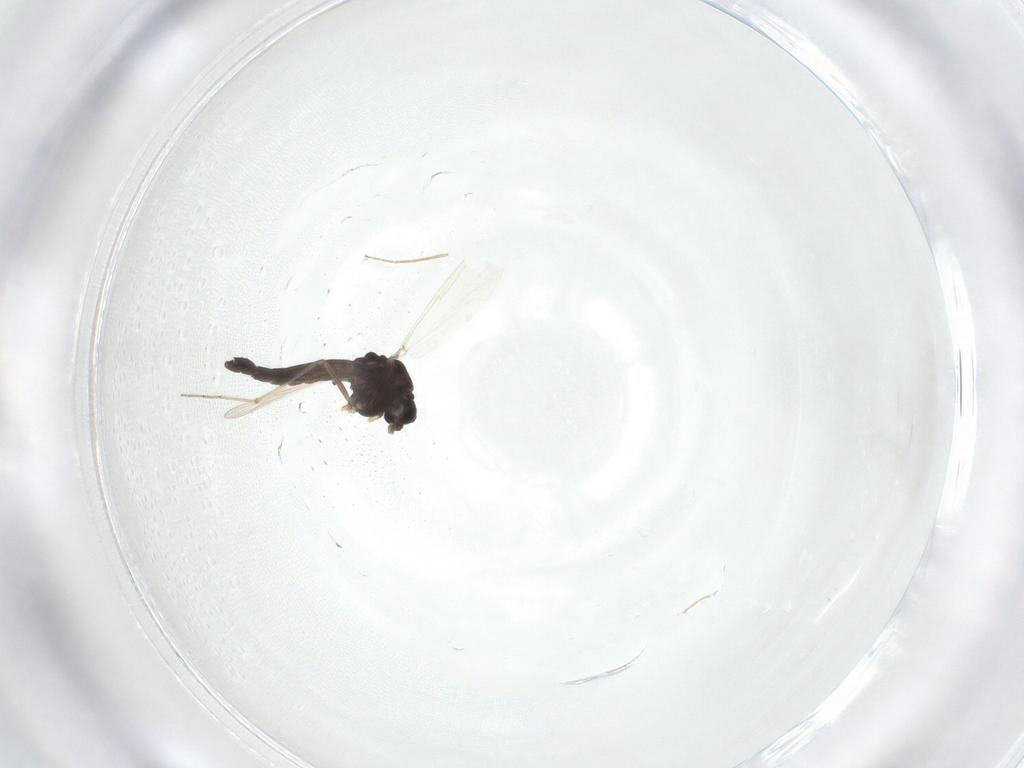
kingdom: Animalia
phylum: Arthropoda
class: Insecta
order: Diptera
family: Chironomidae
